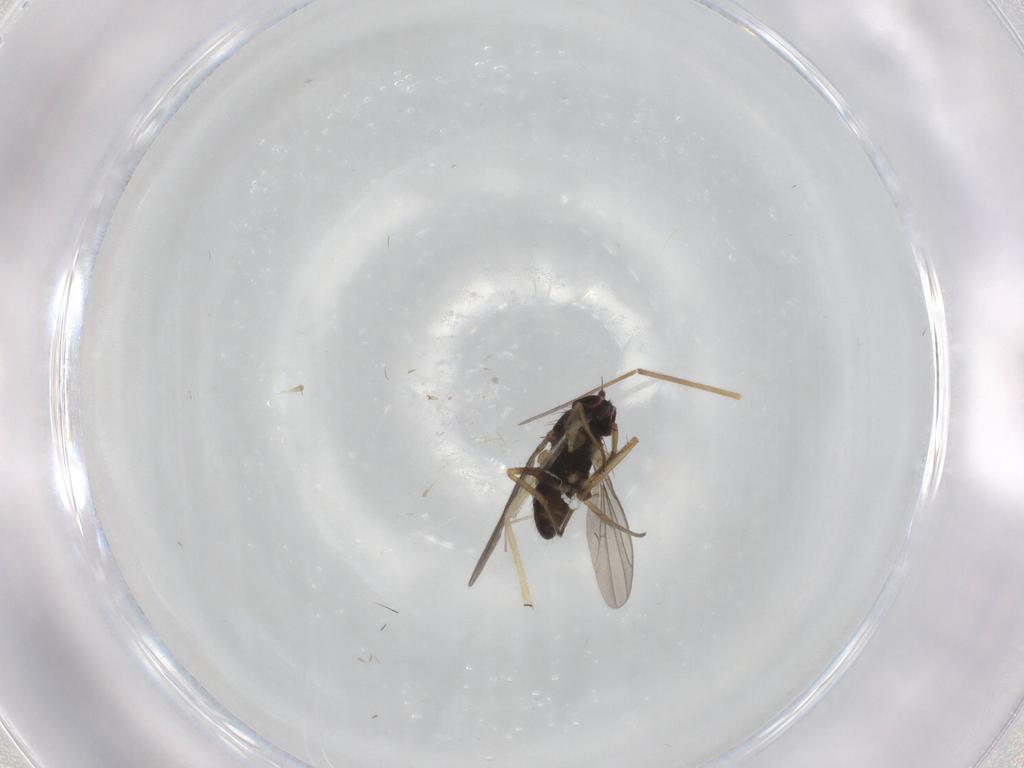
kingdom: Animalia
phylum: Arthropoda
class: Insecta
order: Diptera
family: Dolichopodidae
